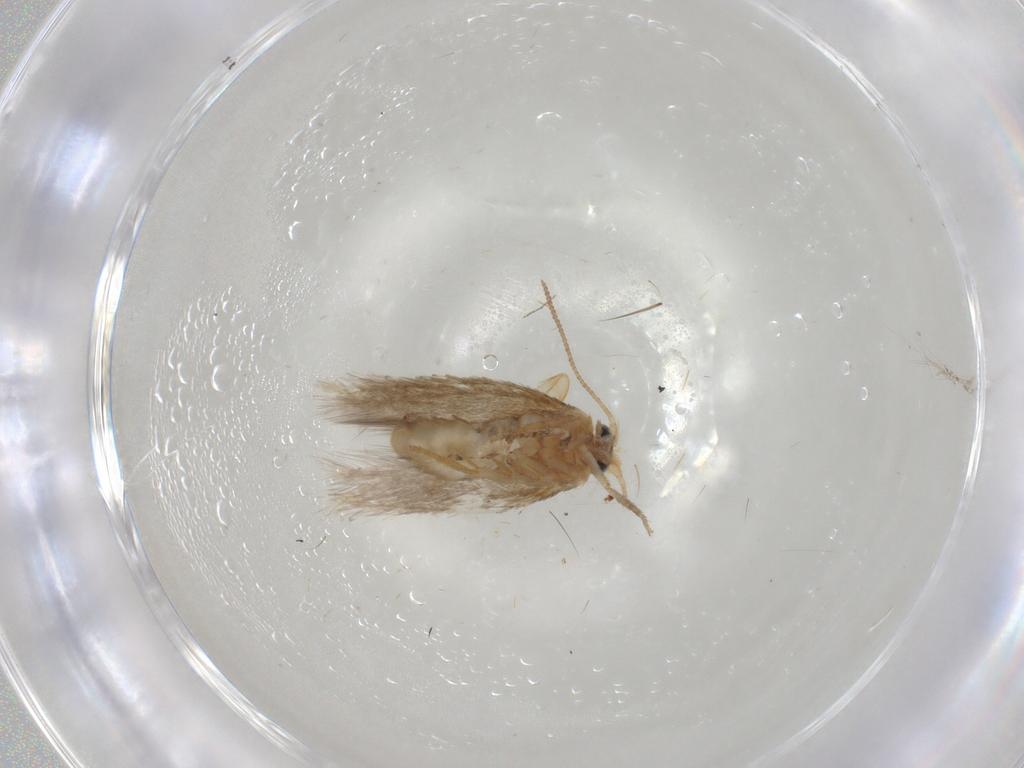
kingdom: Animalia
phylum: Arthropoda
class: Insecta
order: Lepidoptera
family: Nepticulidae
